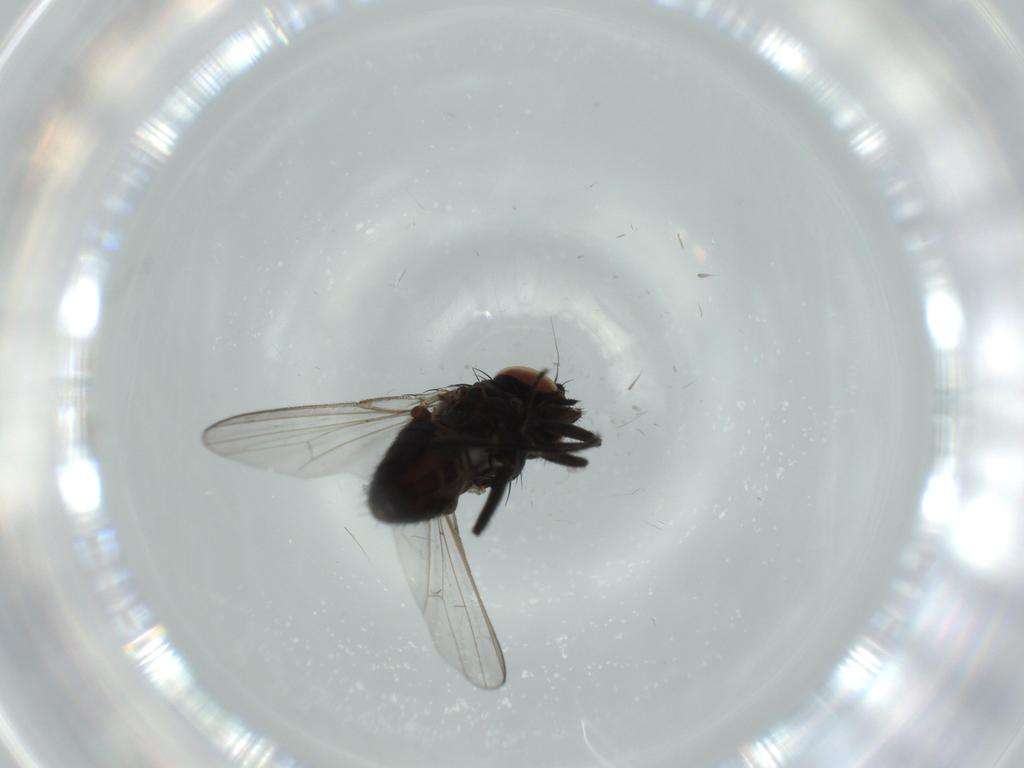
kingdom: Animalia
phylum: Arthropoda
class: Insecta
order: Diptera
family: Ceratopogonidae
